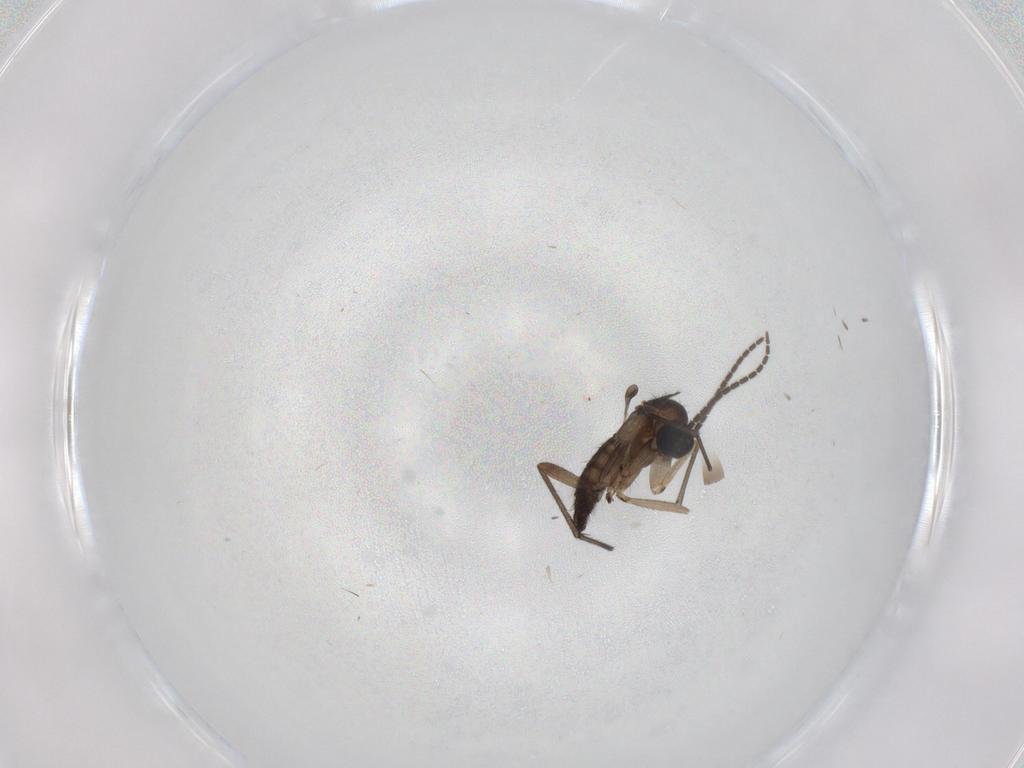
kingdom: Animalia
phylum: Arthropoda
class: Insecta
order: Diptera
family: Sciaridae
